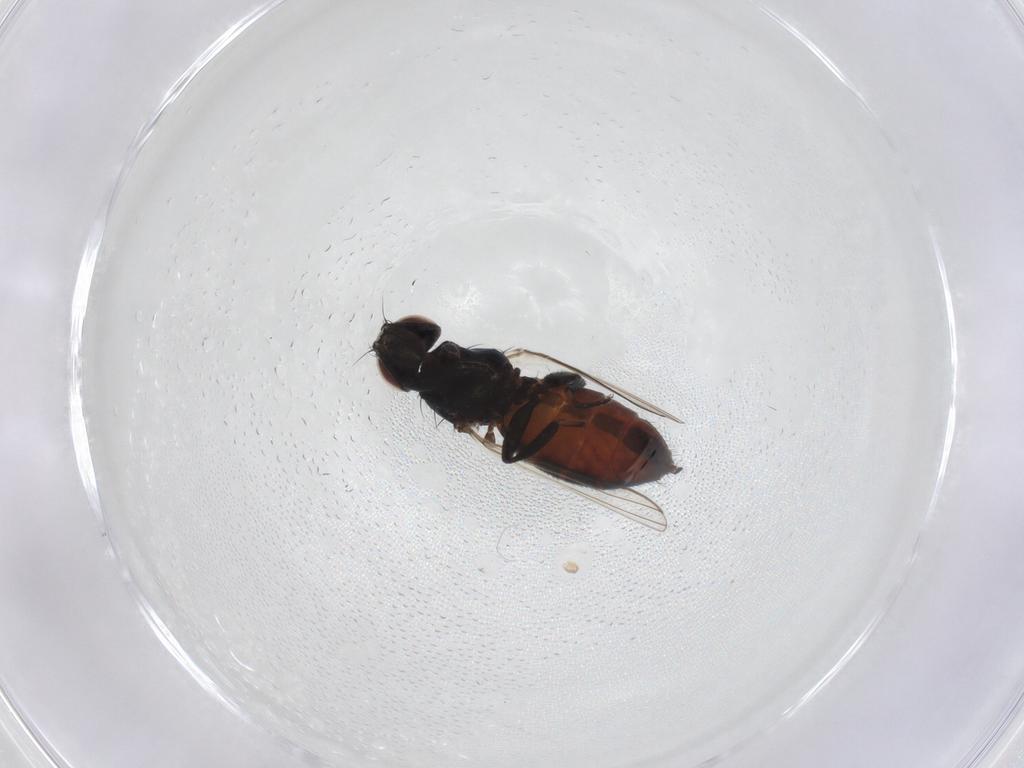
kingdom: Animalia
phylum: Arthropoda
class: Insecta
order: Diptera
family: Milichiidae
